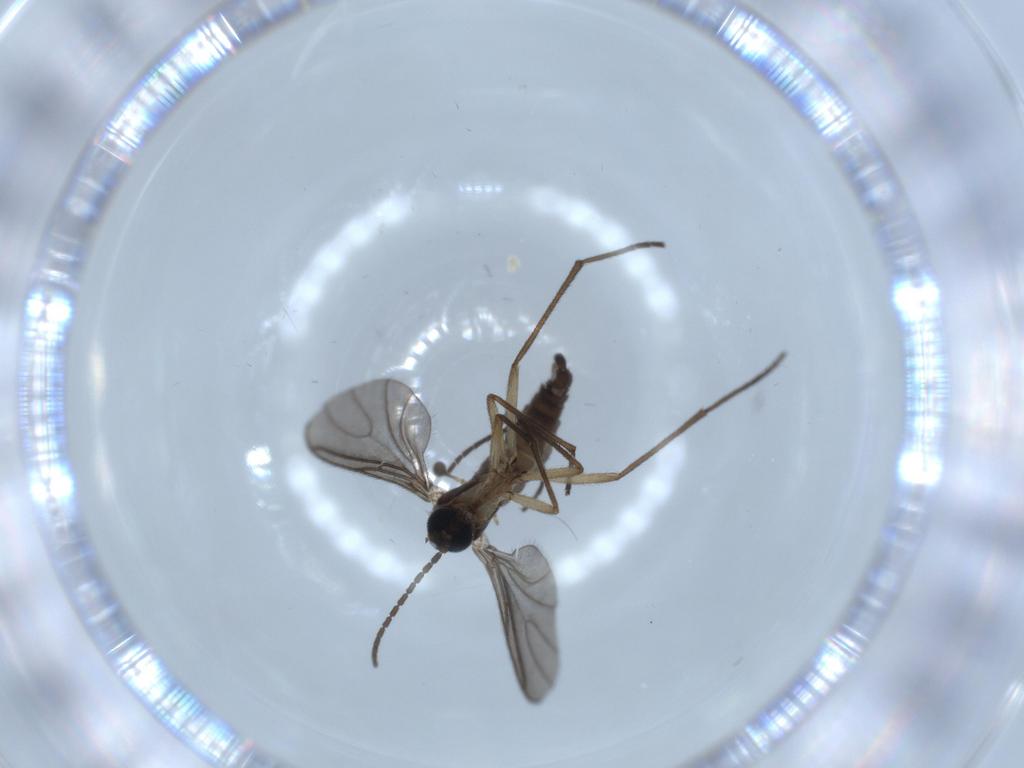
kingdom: Animalia
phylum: Arthropoda
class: Insecta
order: Diptera
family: Sciaridae
